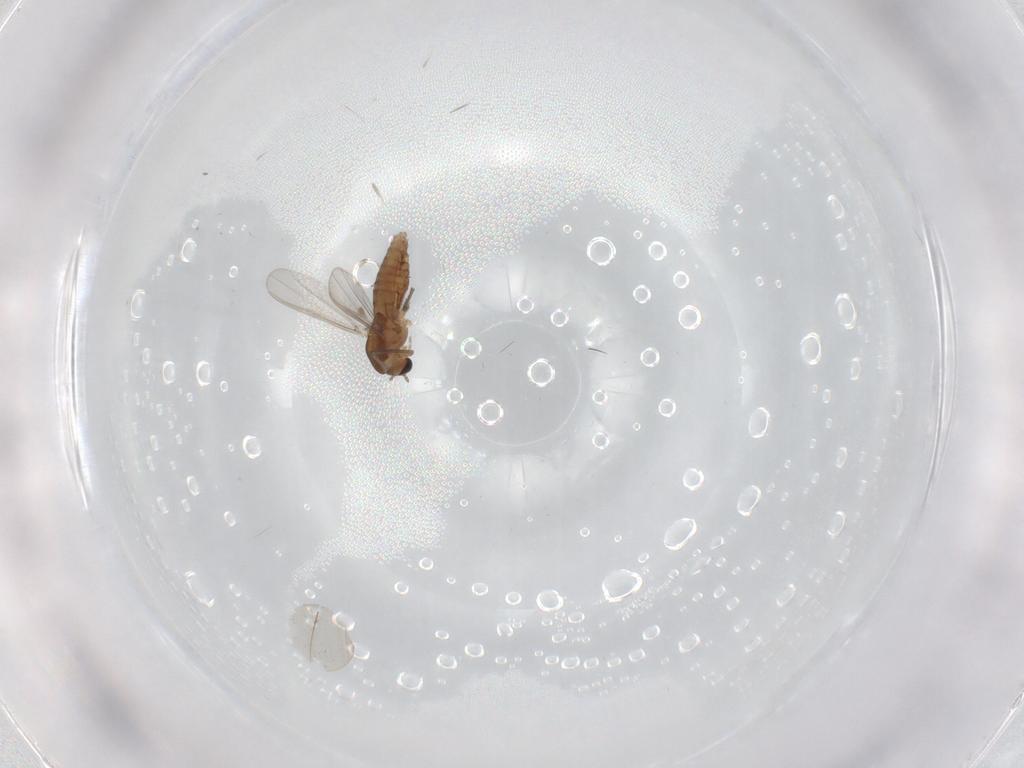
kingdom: Animalia
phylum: Arthropoda
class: Insecta
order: Diptera
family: Chironomidae
